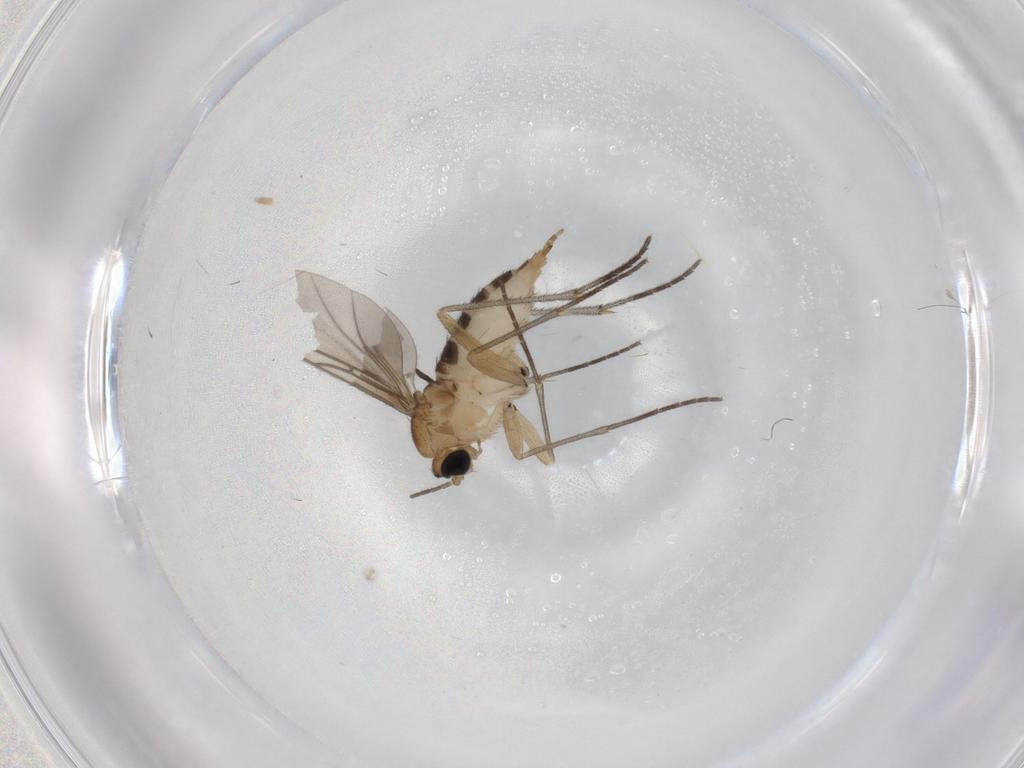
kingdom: Animalia
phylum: Arthropoda
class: Insecta
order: Diptera
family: Sciaridae
